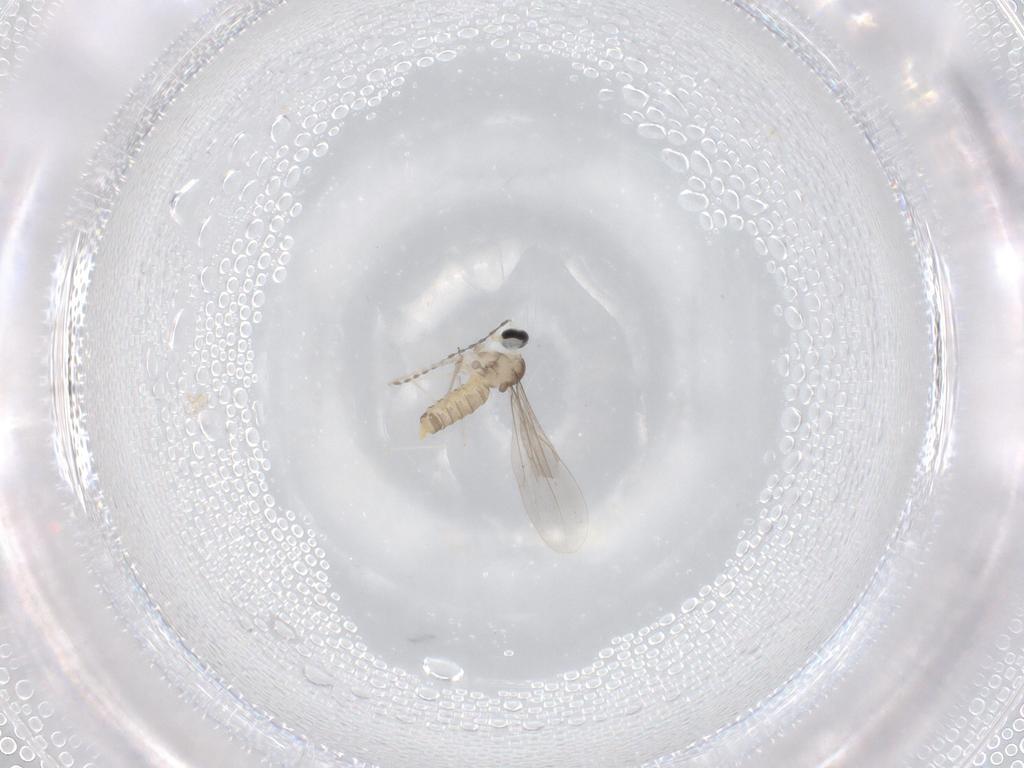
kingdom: Animalia
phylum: Arthropoda
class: Insecta
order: Diptera
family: Cecidomyiidae
